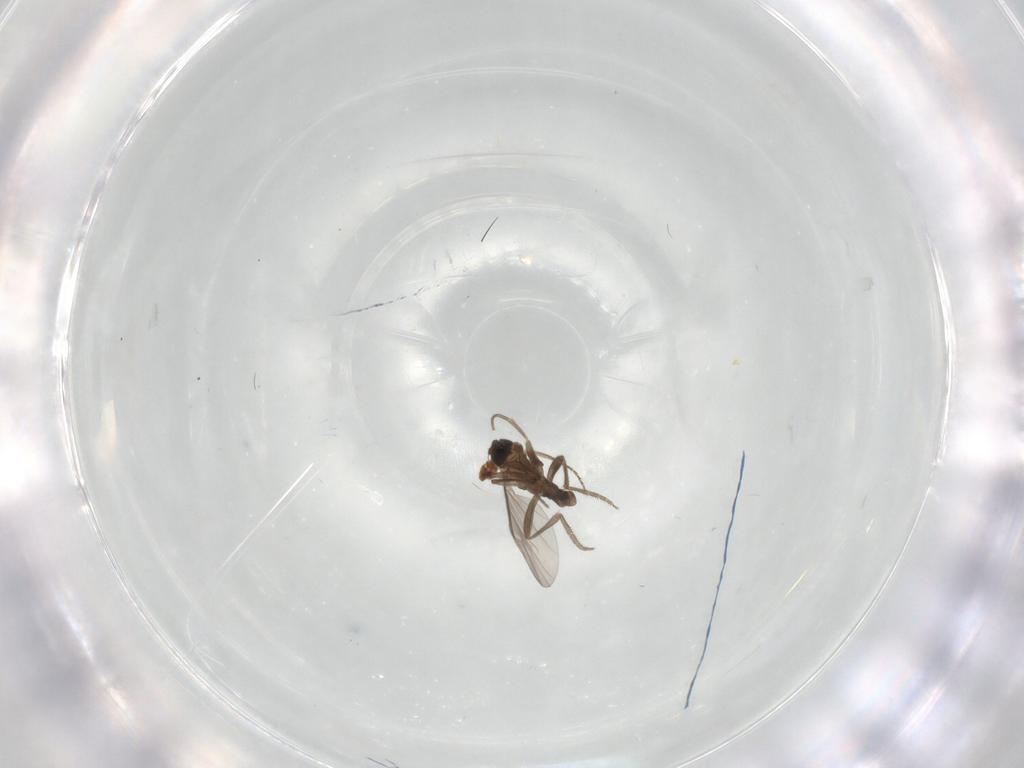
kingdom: Animalia
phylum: Arthropoda
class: Insecta
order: Diptera
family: Phoridae
